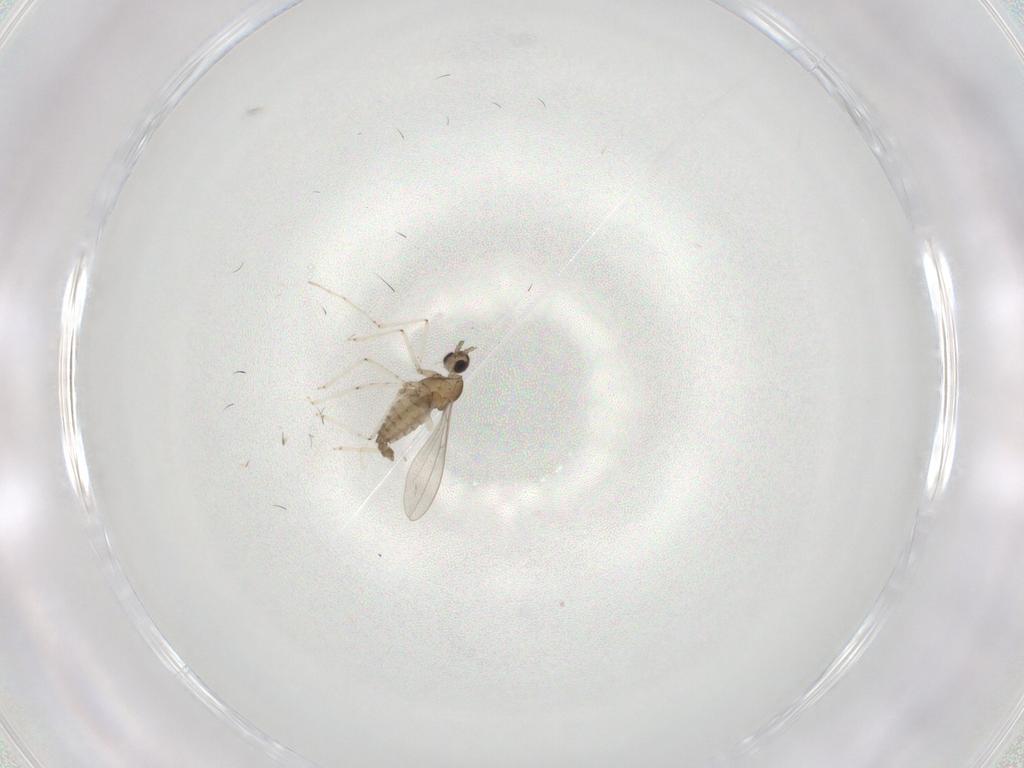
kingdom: Animalia
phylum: Arthropoda
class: Insecta
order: Diptera
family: Cecidomyiidae
